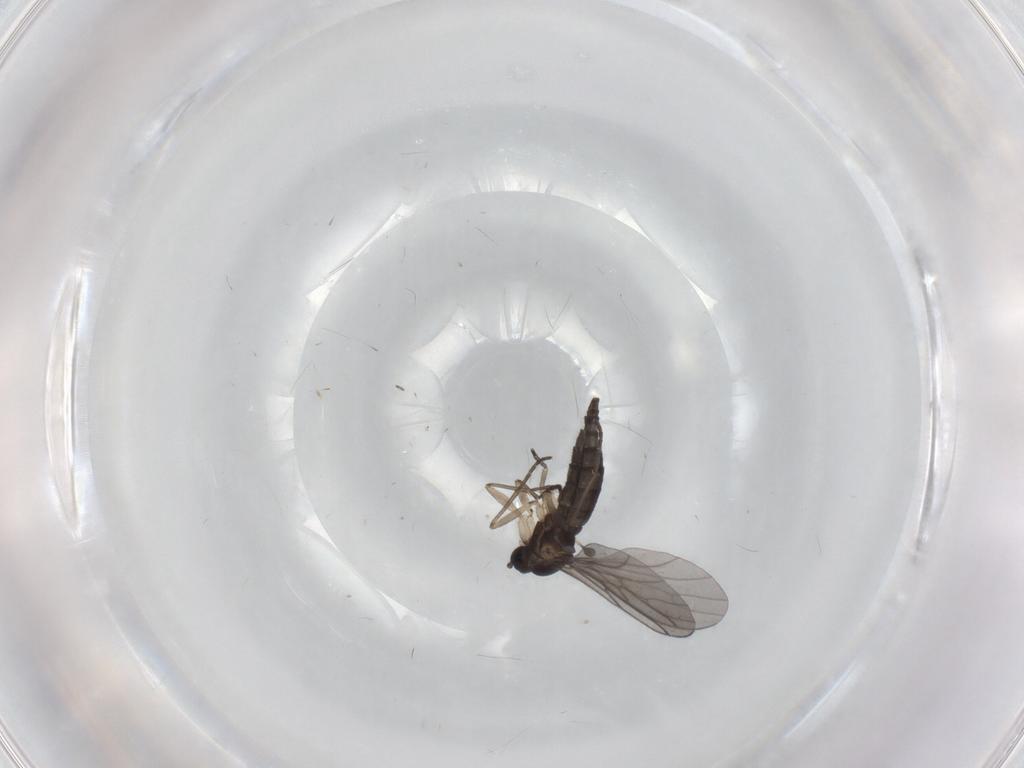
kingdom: Animalia
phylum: Arthropoda
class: Insecta
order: Diptera
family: Sciaridae
